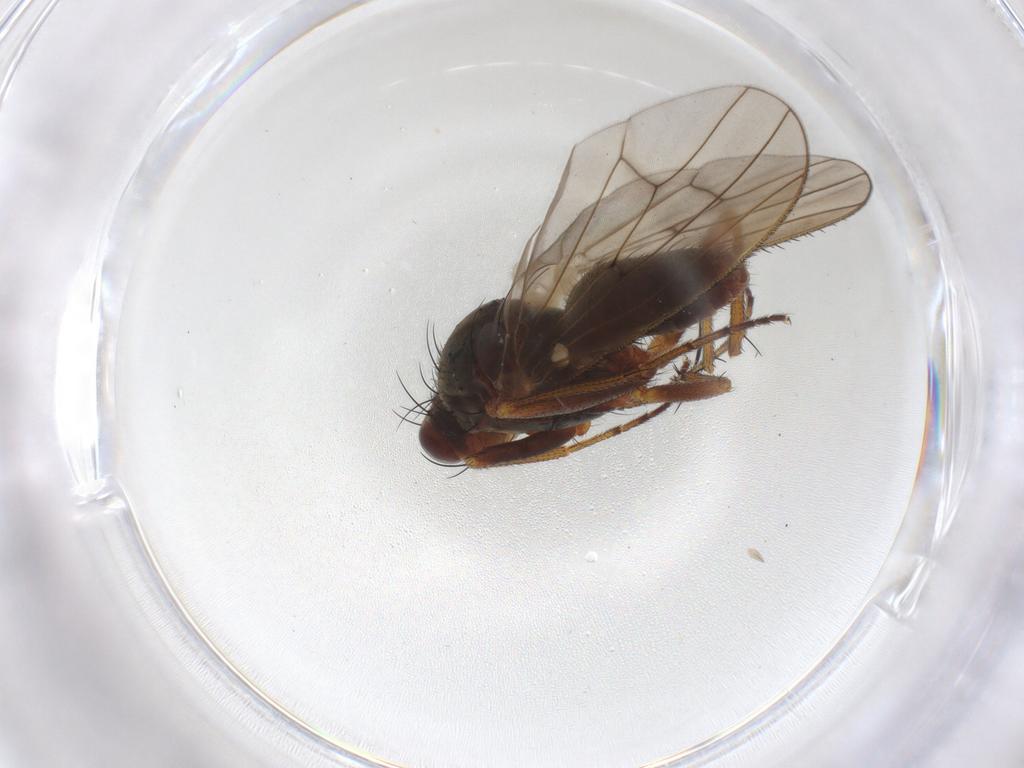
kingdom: Animalia
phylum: Arthropoda
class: Insecta
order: Diptera
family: Heleomyzidae
